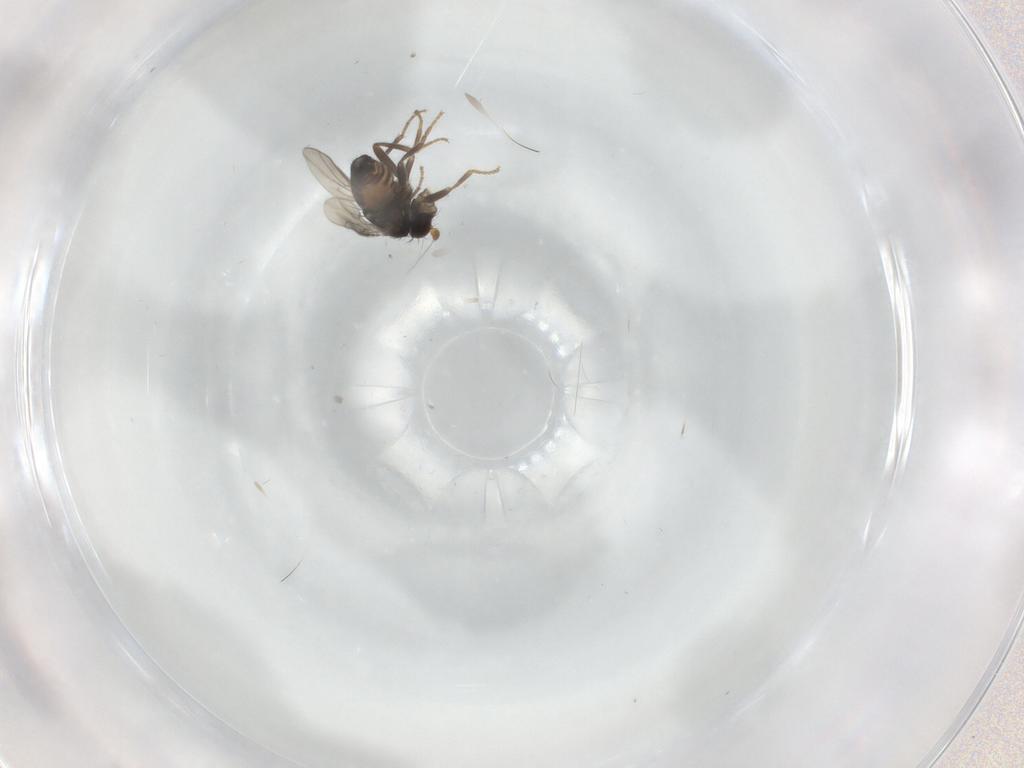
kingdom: Animalia
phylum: Arthropoda
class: Insecta
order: Diptera
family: Sphaeroceridae
